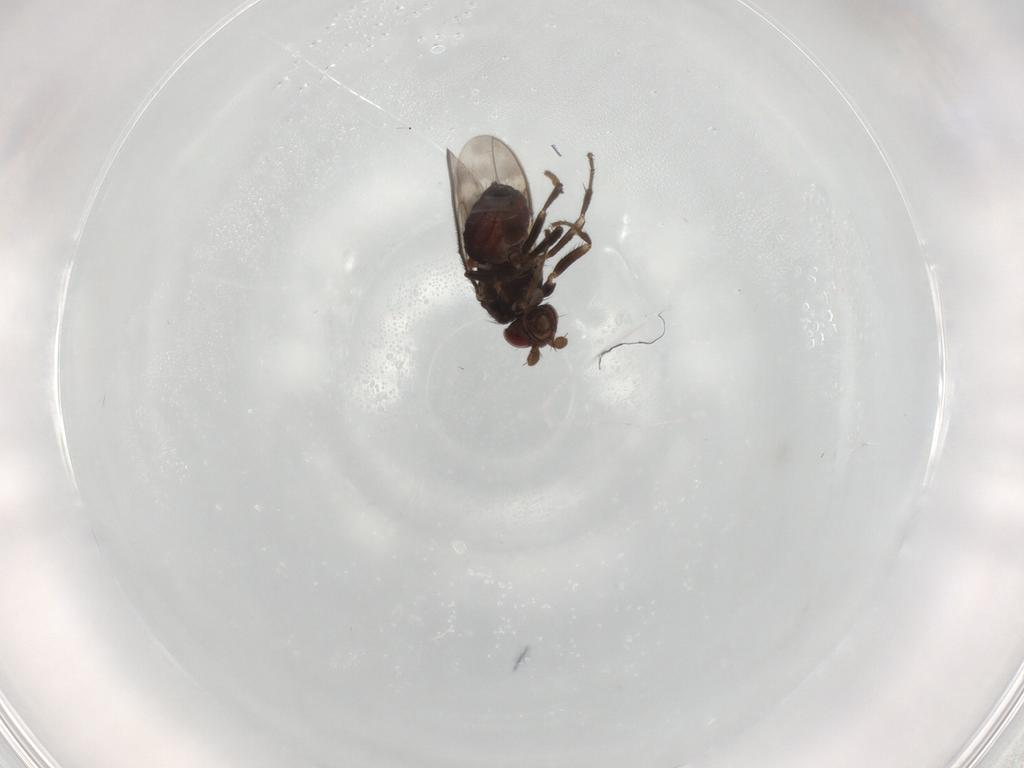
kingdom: Animalia
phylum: Arthropoda
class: Insecta
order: Diptera
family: Sphaeroceridae
